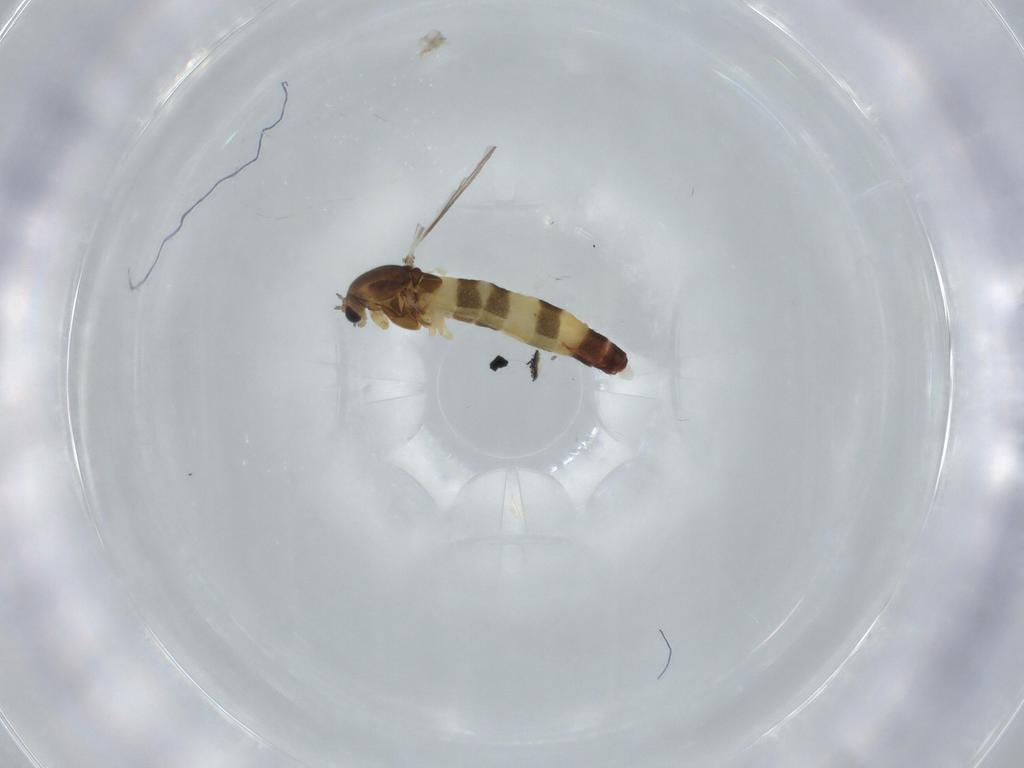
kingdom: Animalia
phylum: Arthropoda
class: Insecta
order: Diptera
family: Chironomidae
